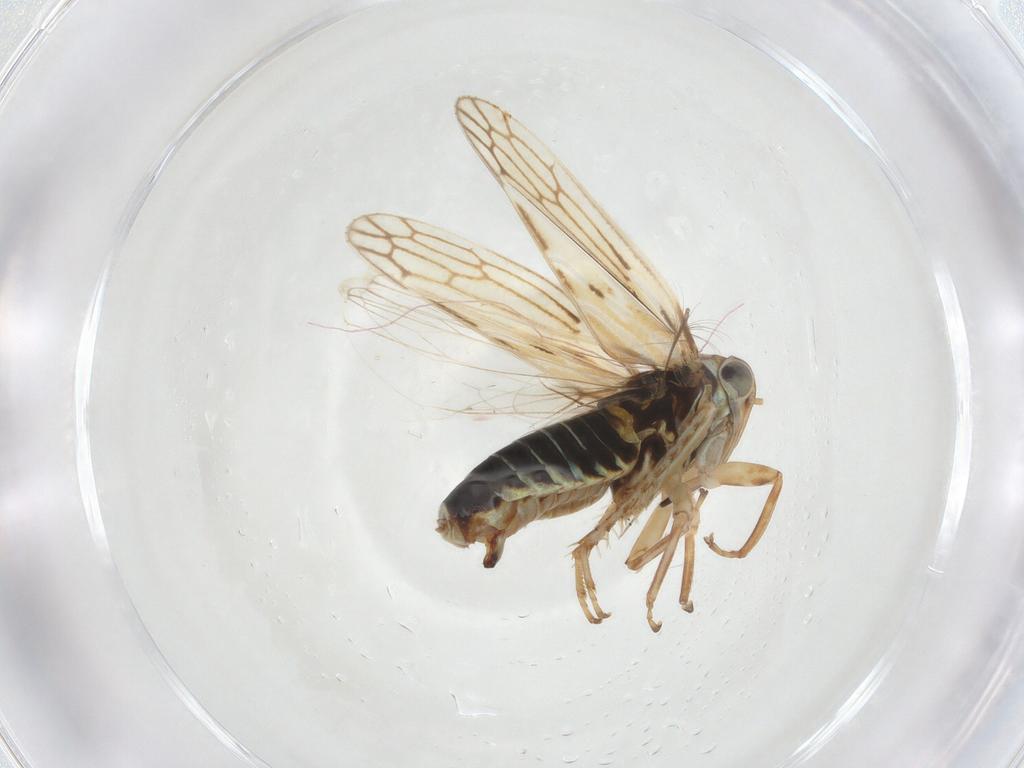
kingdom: Animalia
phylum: Arthropoda
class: Insecta
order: Hemiptera
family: Cicadellidae
